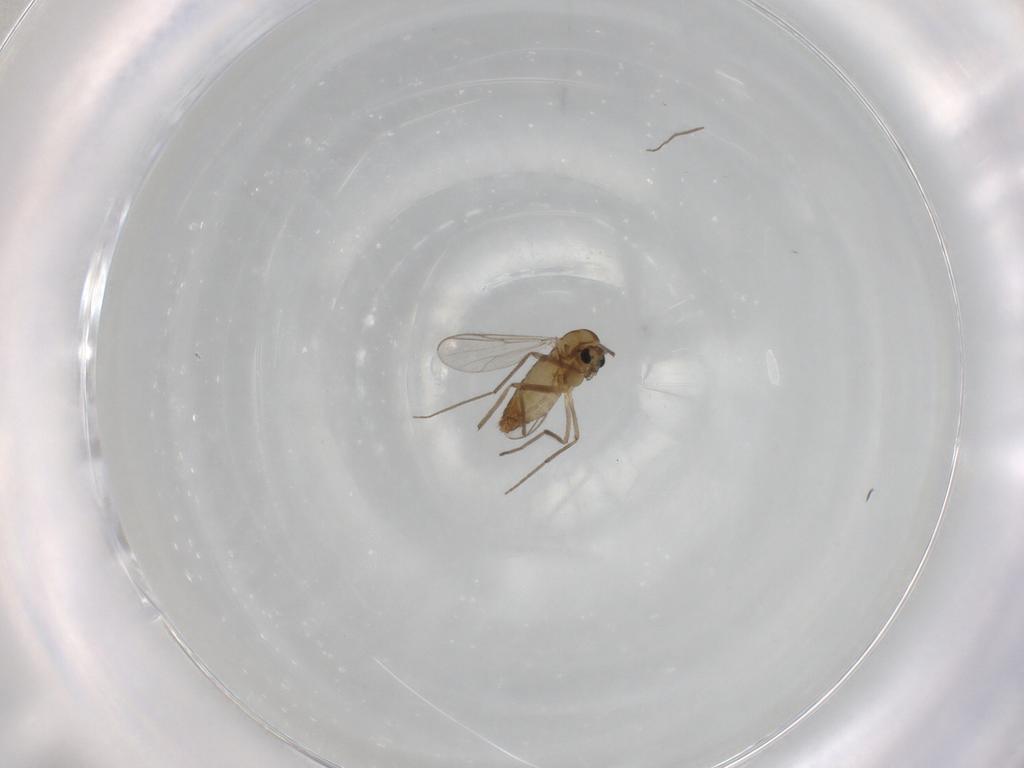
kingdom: Animalia
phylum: Arthropoda
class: Insecta
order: Diptera
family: Chironomidae
